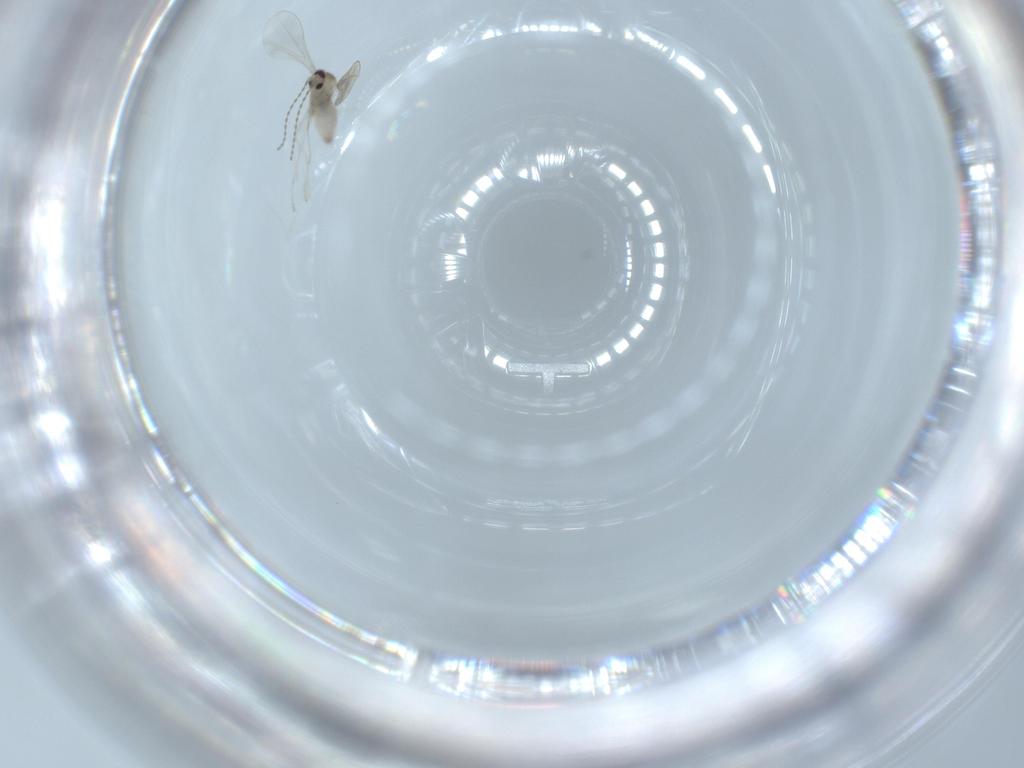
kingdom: Animalia
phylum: Arthropoda
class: Insecta
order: Diptera
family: Cecidomyiidae
